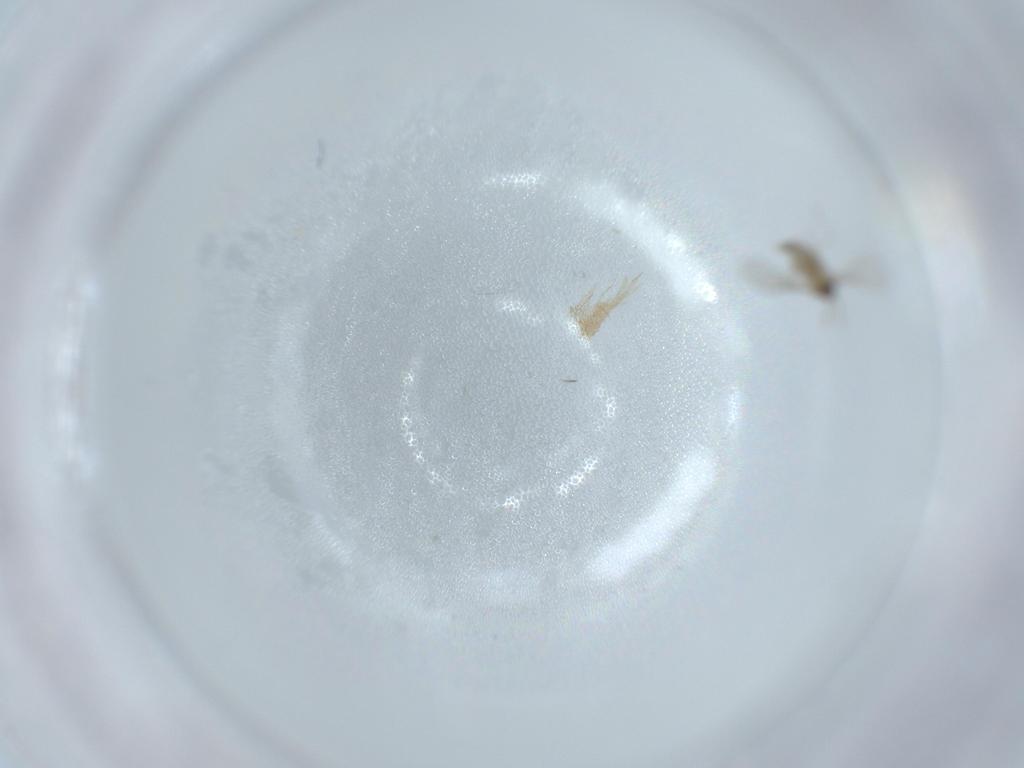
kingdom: Animalia
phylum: Arthropoda
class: Insecta
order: Diptera
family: Cecidomyiidae
